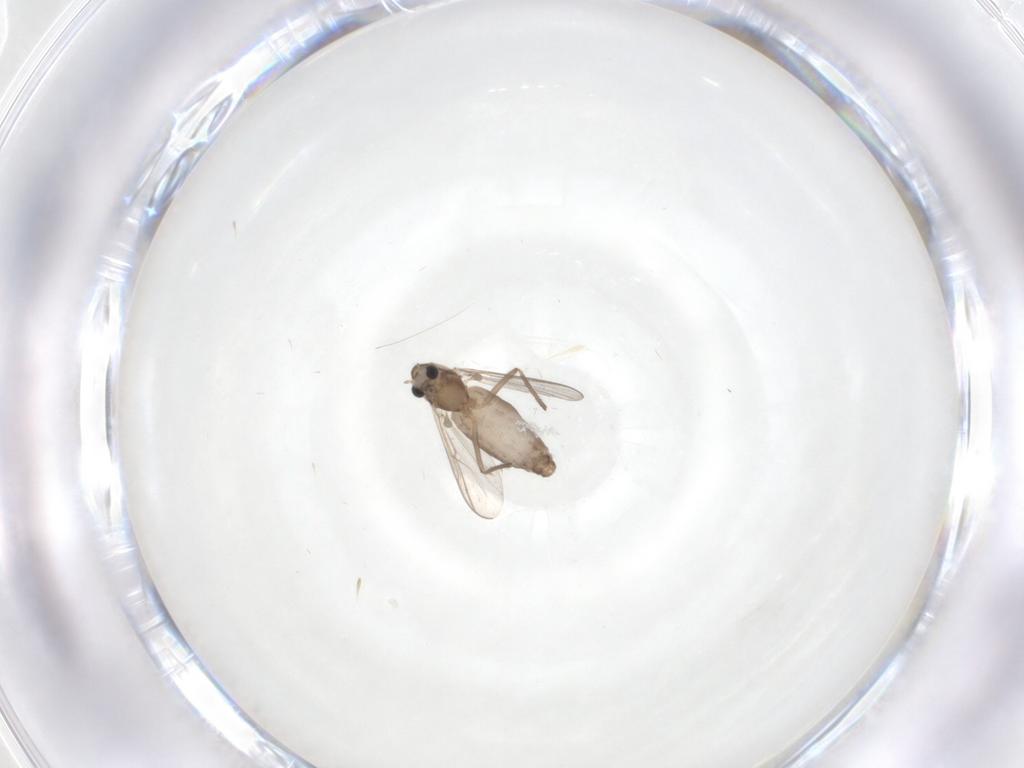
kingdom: Animalia
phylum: Arthropoda
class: Insecta
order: Diptera
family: Chironomidae
